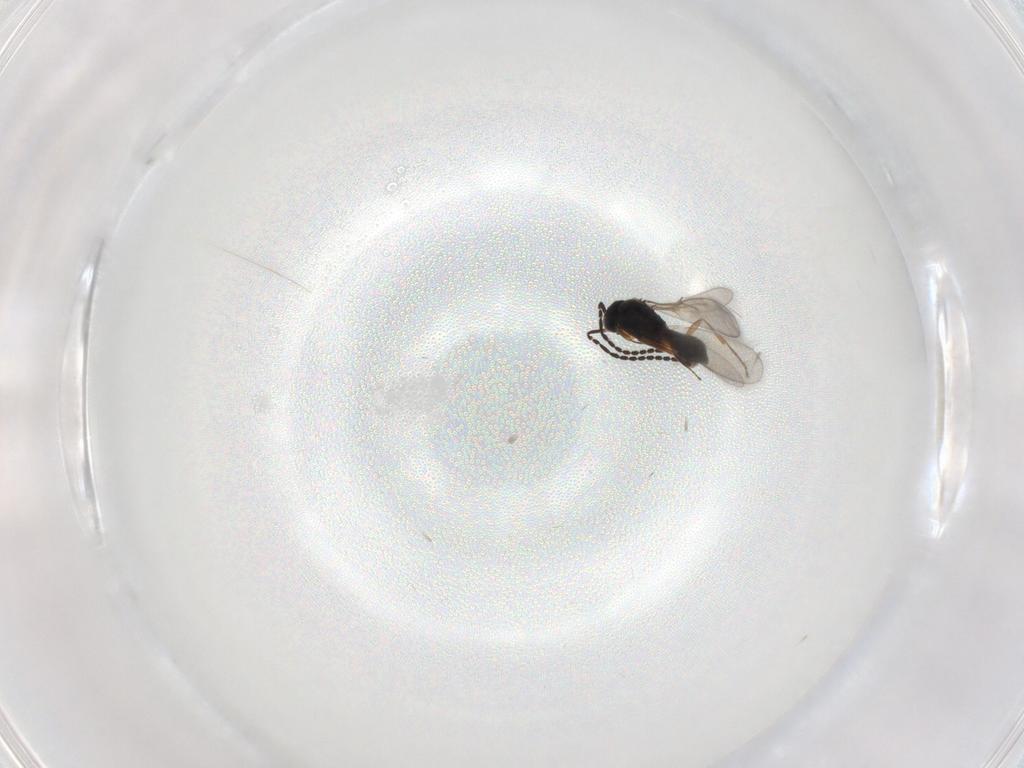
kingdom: Animalia
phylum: Arthropoda
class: Insecta
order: Hymenoptera
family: Scelionidae
